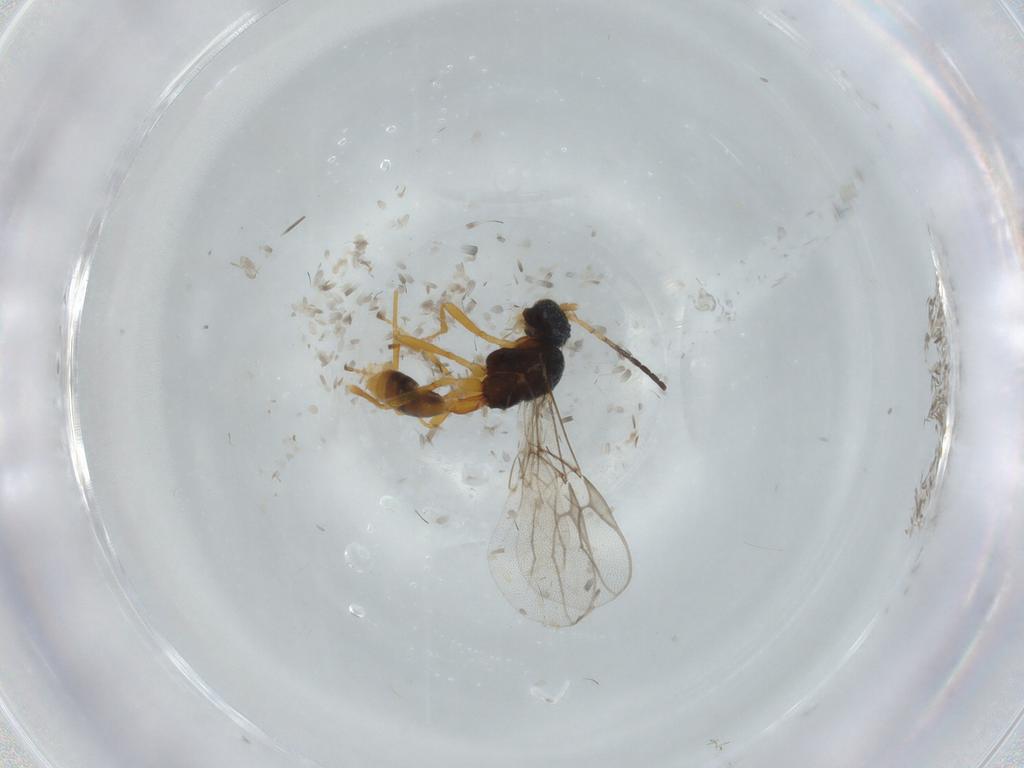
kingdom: Animalia
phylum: Arthropoda
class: Insecta
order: Hymenoptera
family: Braconidae
